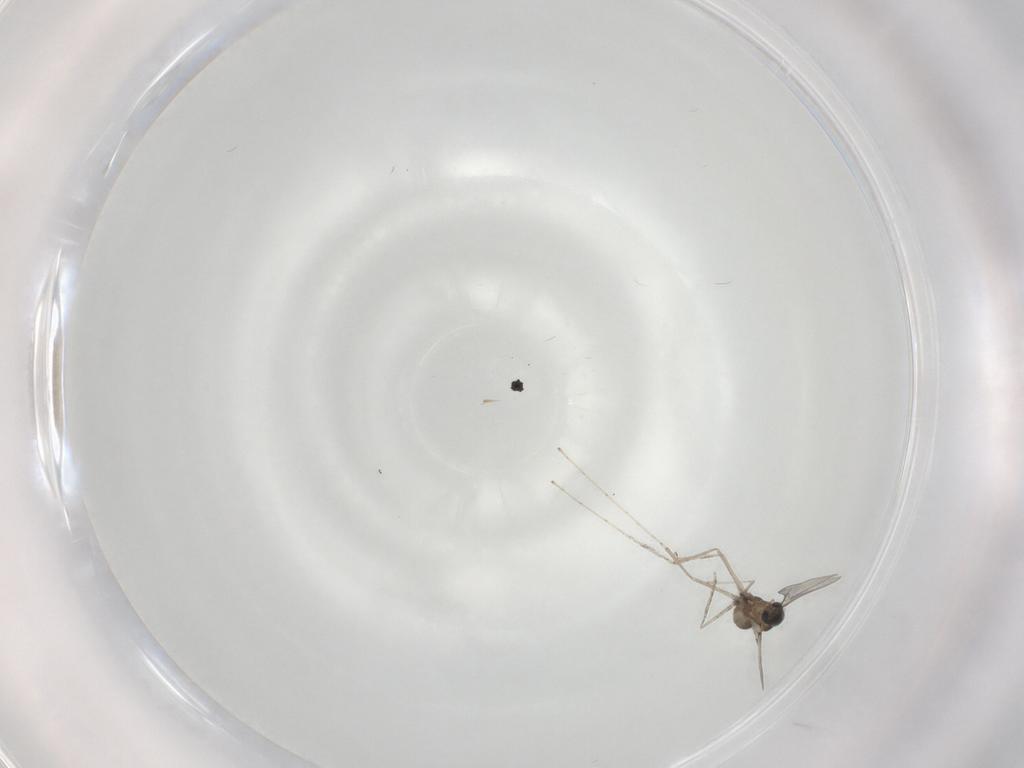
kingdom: Animalia
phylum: Arthropoda
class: Insecta
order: Diptera
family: Cecidomyiidae
